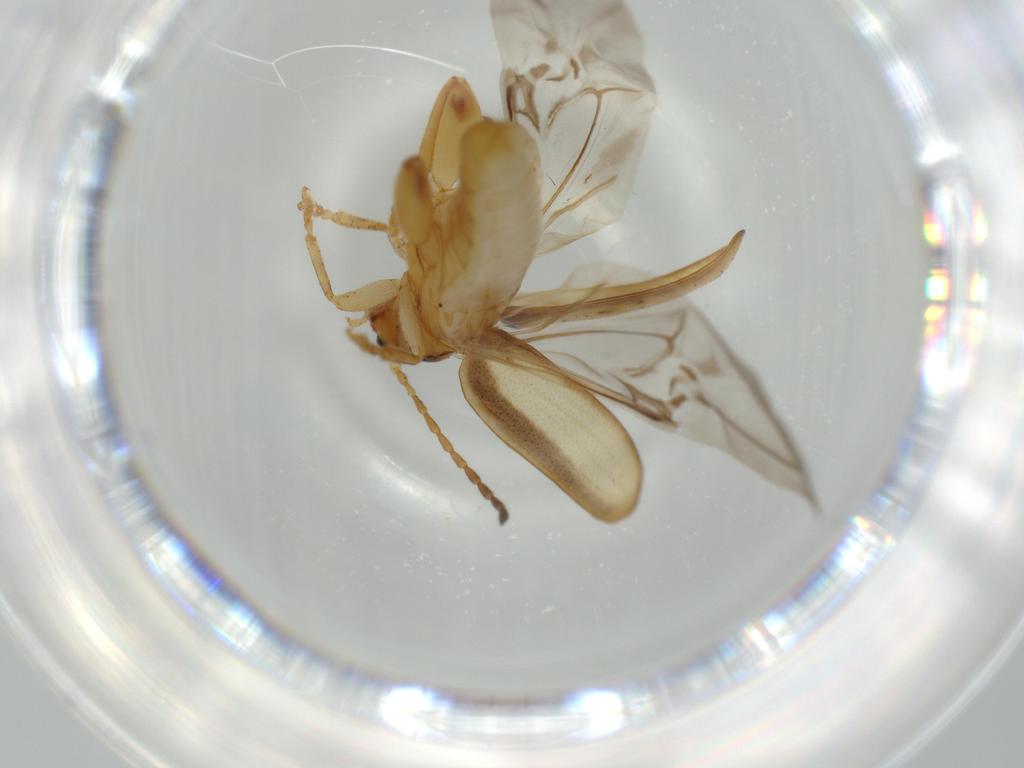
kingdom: Animalia
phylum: Arthropoda
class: Insecta
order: Coleoptera
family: Chrysomelidae
